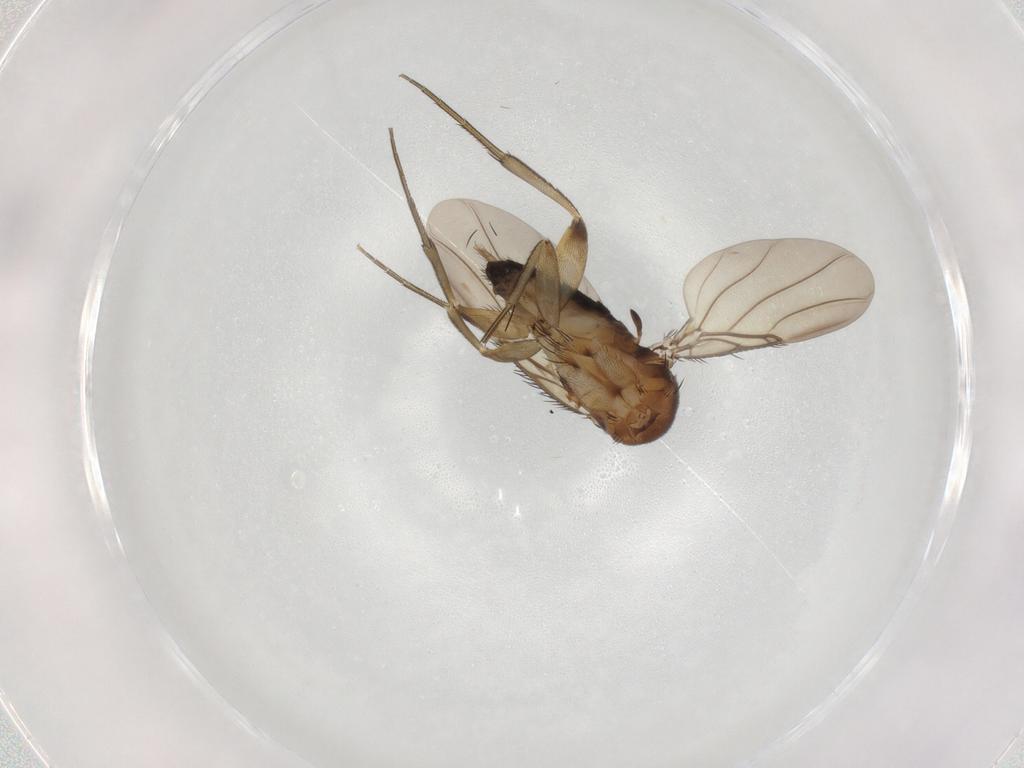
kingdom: Animalia
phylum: Arthropoda
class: Insecta
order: Diptera
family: Phoridae
